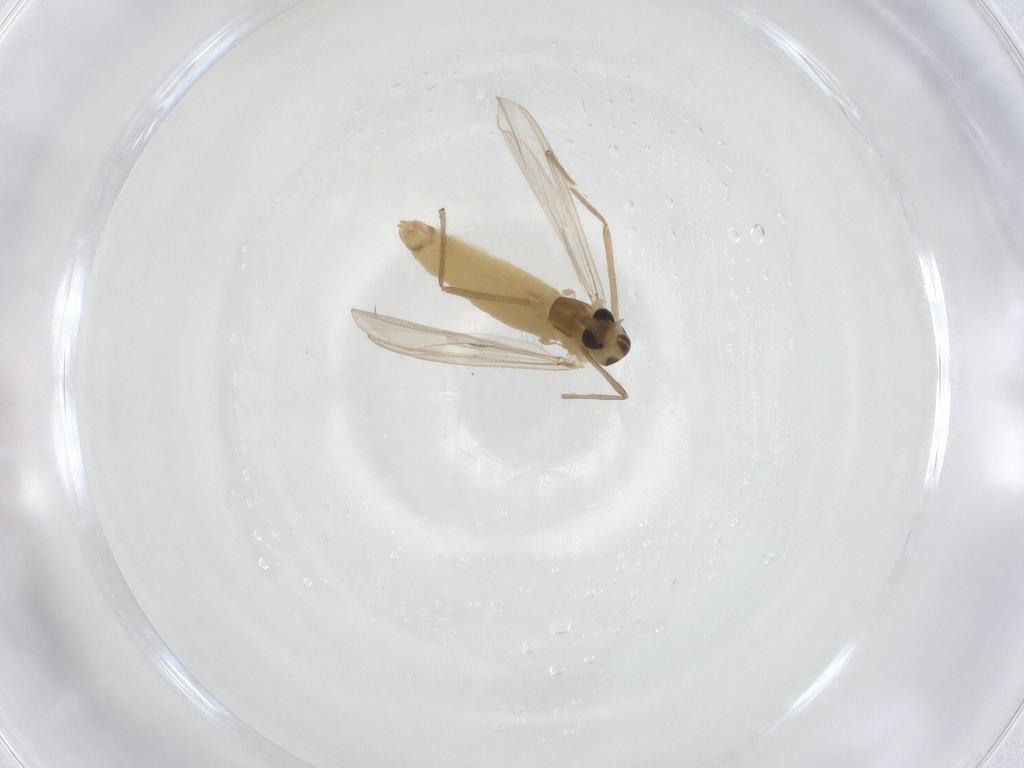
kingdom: Animalia
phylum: Arthropoda
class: Insecta
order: Diptera
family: Chironomidae
